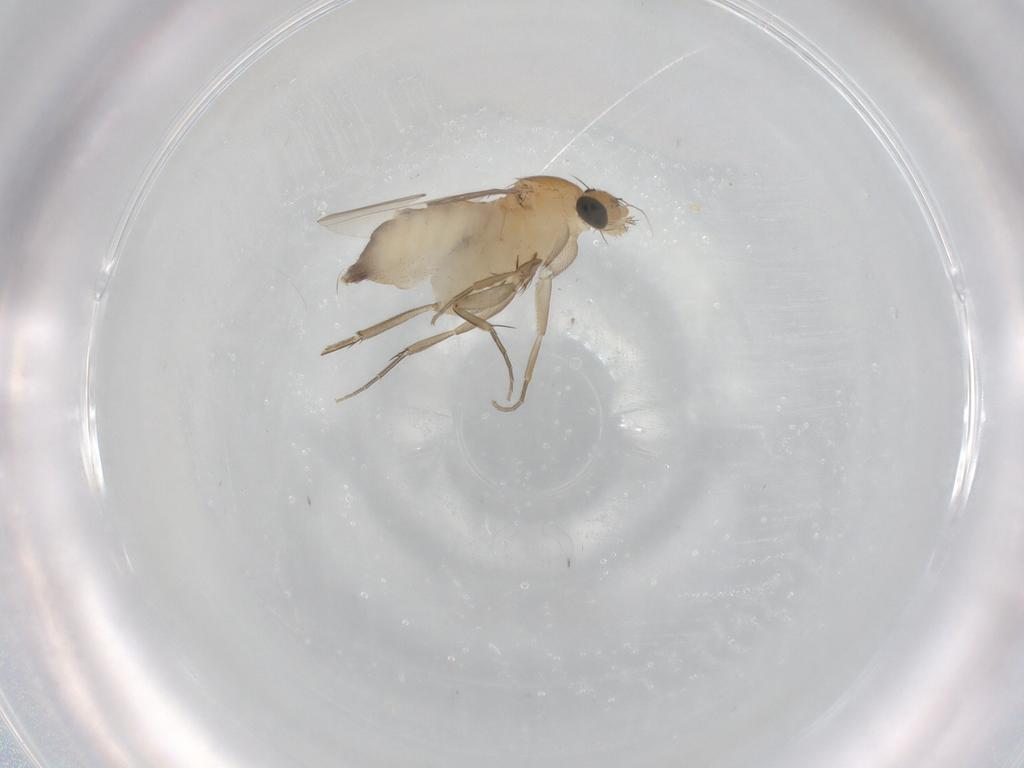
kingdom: Animalia
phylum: Arthropoda
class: Insecta
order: Diptera
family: Phoridae
